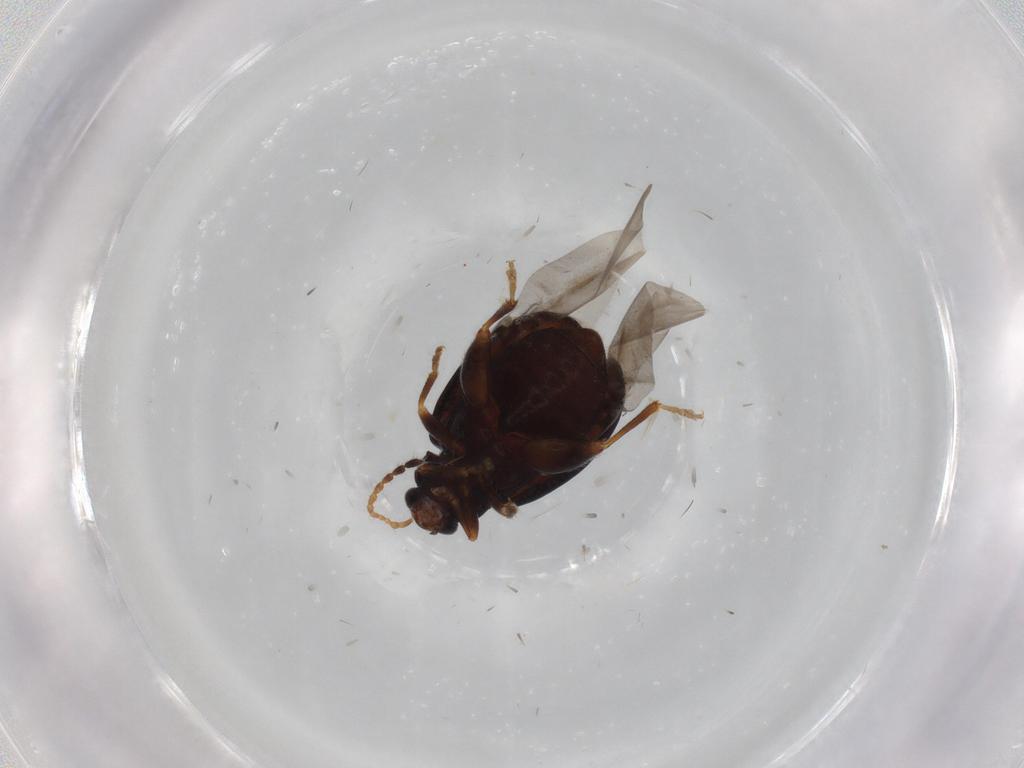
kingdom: Animalia
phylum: Arthropoda
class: Insecta
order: Coleoptera
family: Chrysomelidae
